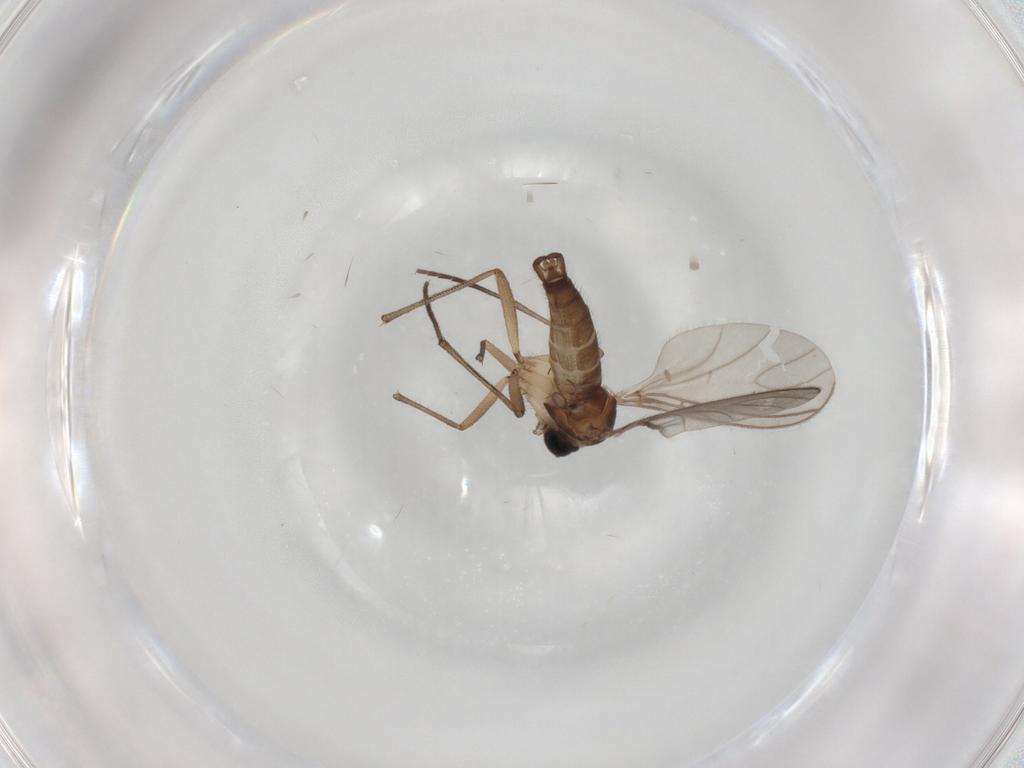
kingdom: Animalia
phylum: Arthropoda
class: Insecta
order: Diptera
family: Sciaridae
